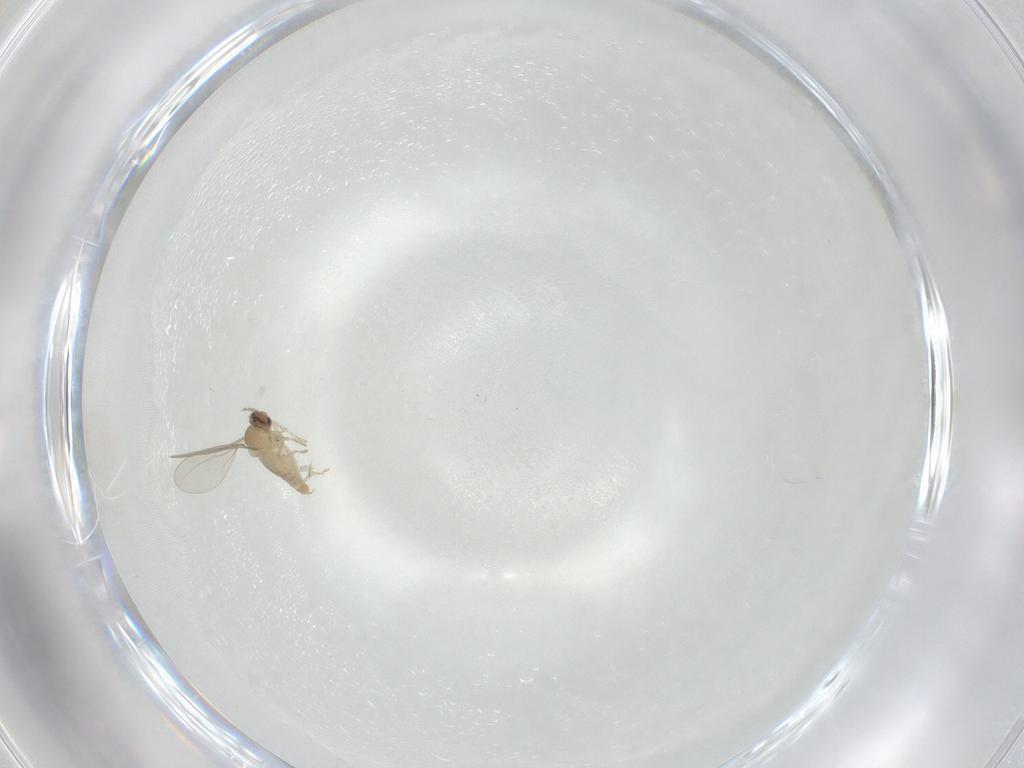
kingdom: Animalia
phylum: Arthropoda
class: Insecta
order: Diptera
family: Cecidomyiidae
